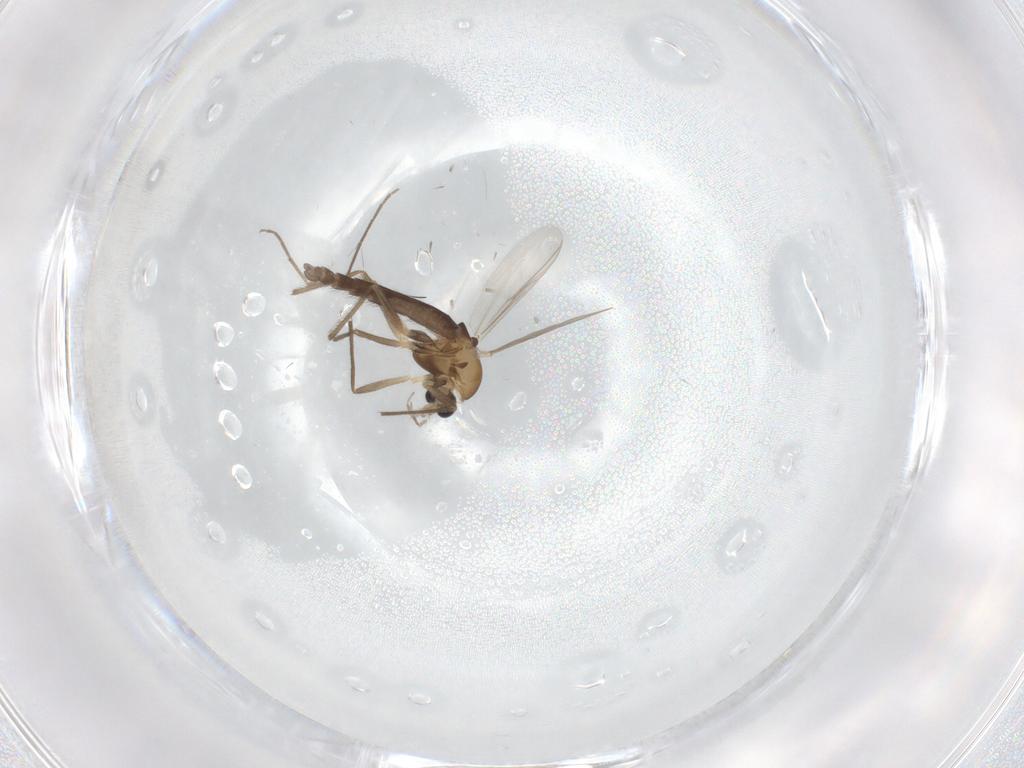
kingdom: Animalia
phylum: Arthropoda
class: Insecta
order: Diptera
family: Chironomidae
